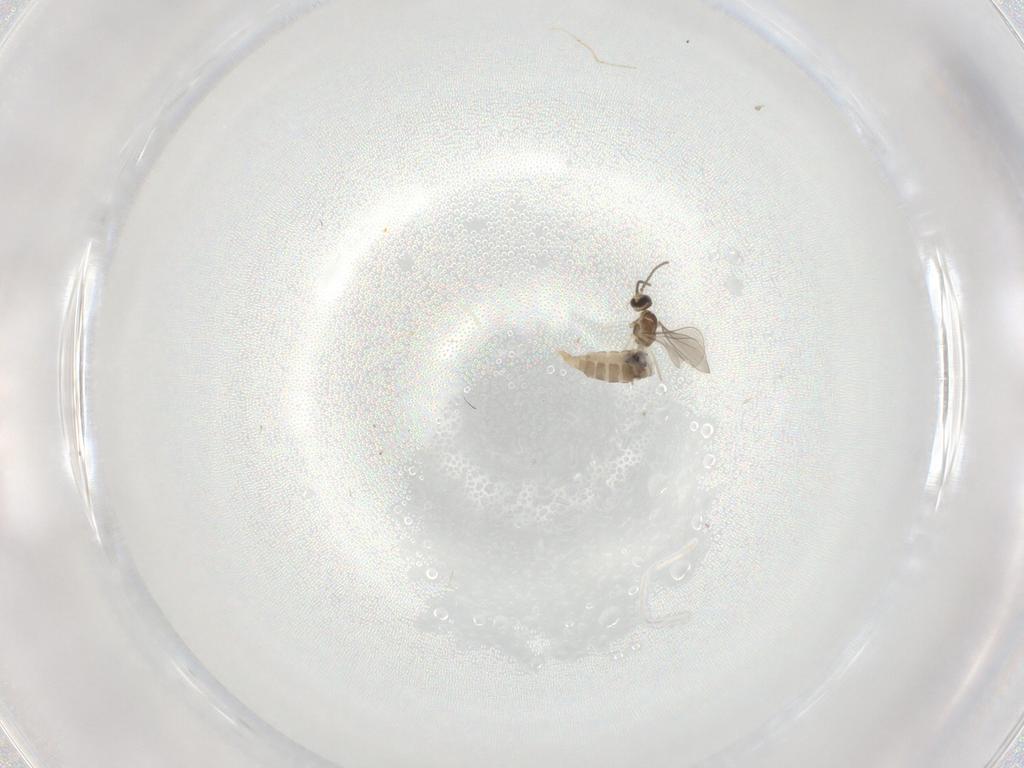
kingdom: Animalia
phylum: Arthropoda
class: Insecta
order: Diptera
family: Cecidomyiidae
